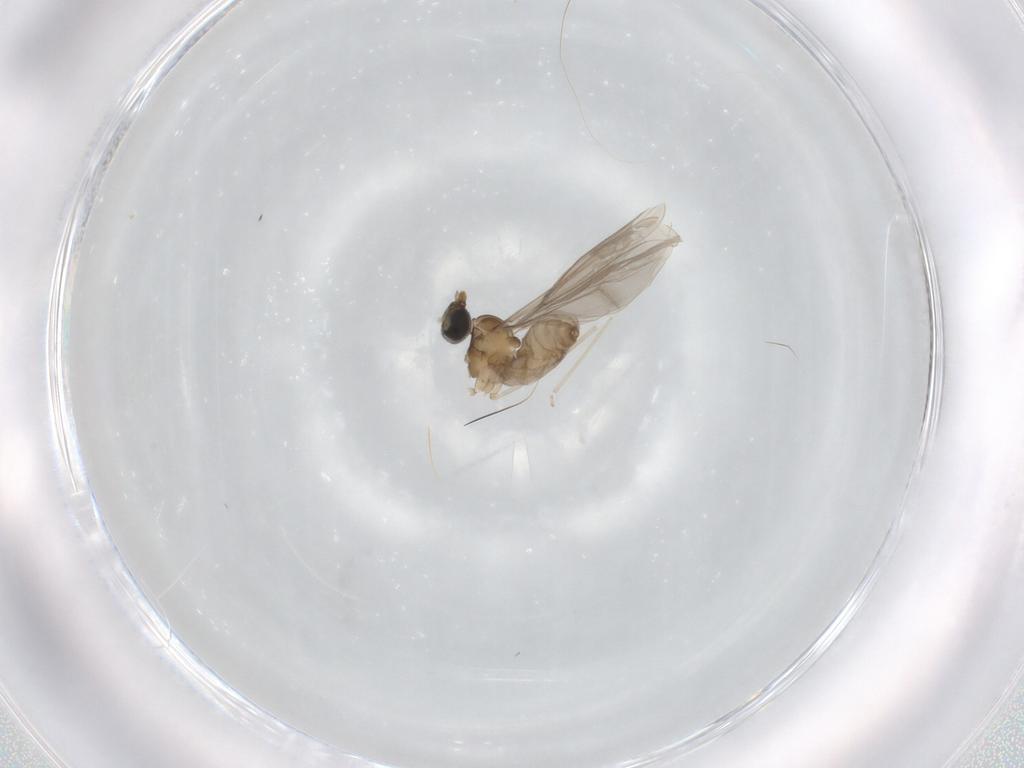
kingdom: Animalia
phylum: Arthropoda
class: Insecta
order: Diptera
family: Cecidomyiidae
